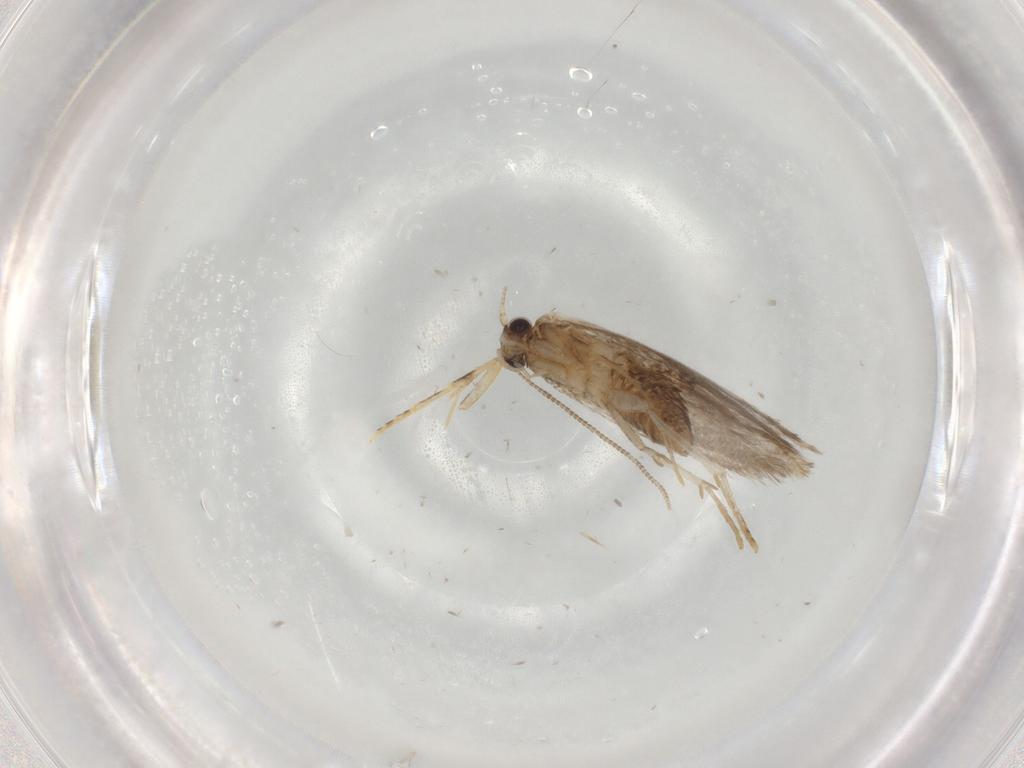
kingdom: Animalia
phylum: Arthropoda
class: Insecta
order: Lepidoptera
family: Tineidae
